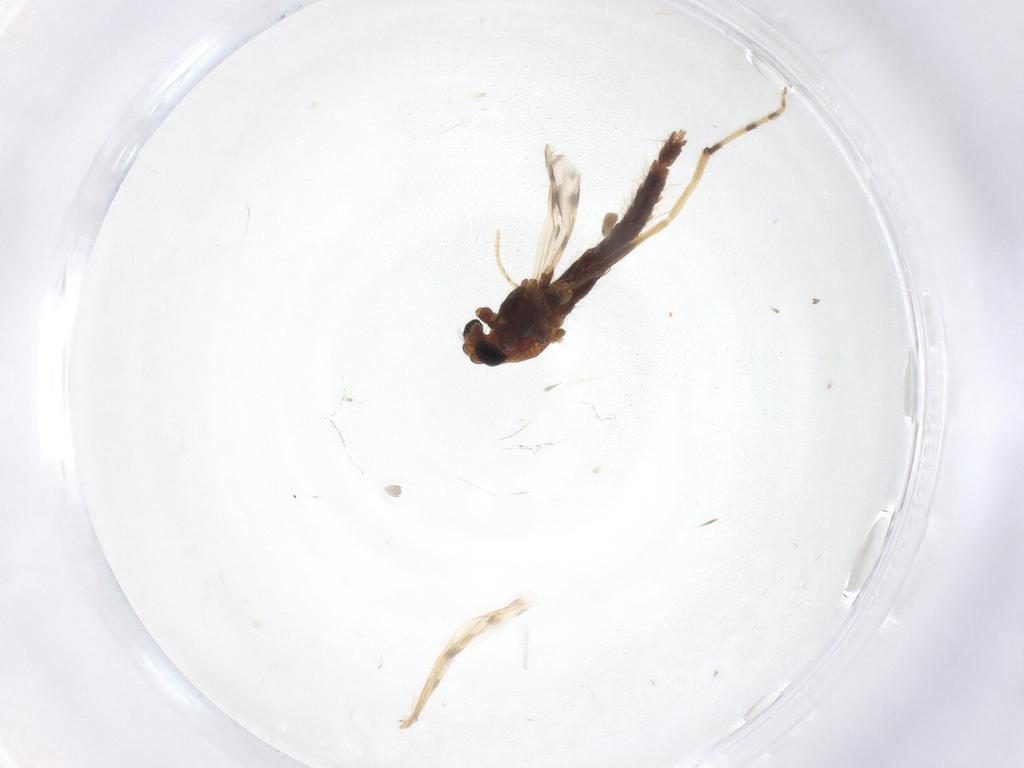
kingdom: Animalia
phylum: Arthropoda
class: Insecta
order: Diptera
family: Chironomidae
